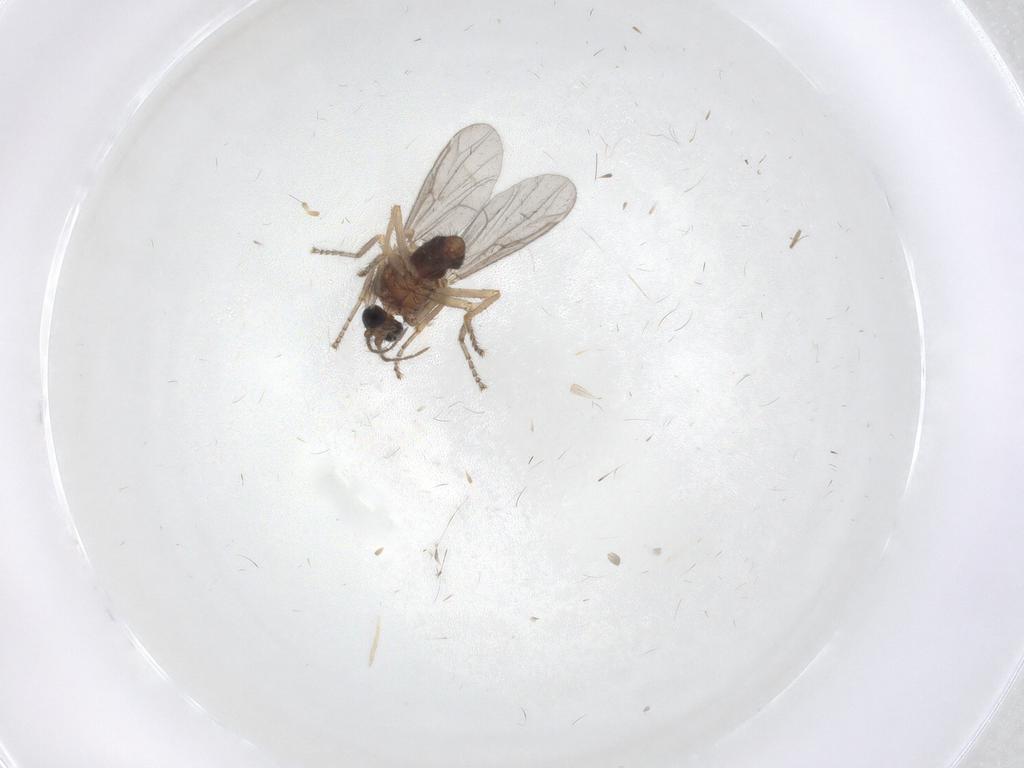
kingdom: Animalia
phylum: Arthropoda
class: Insecta
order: Diptera
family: Ceratopogonidae
